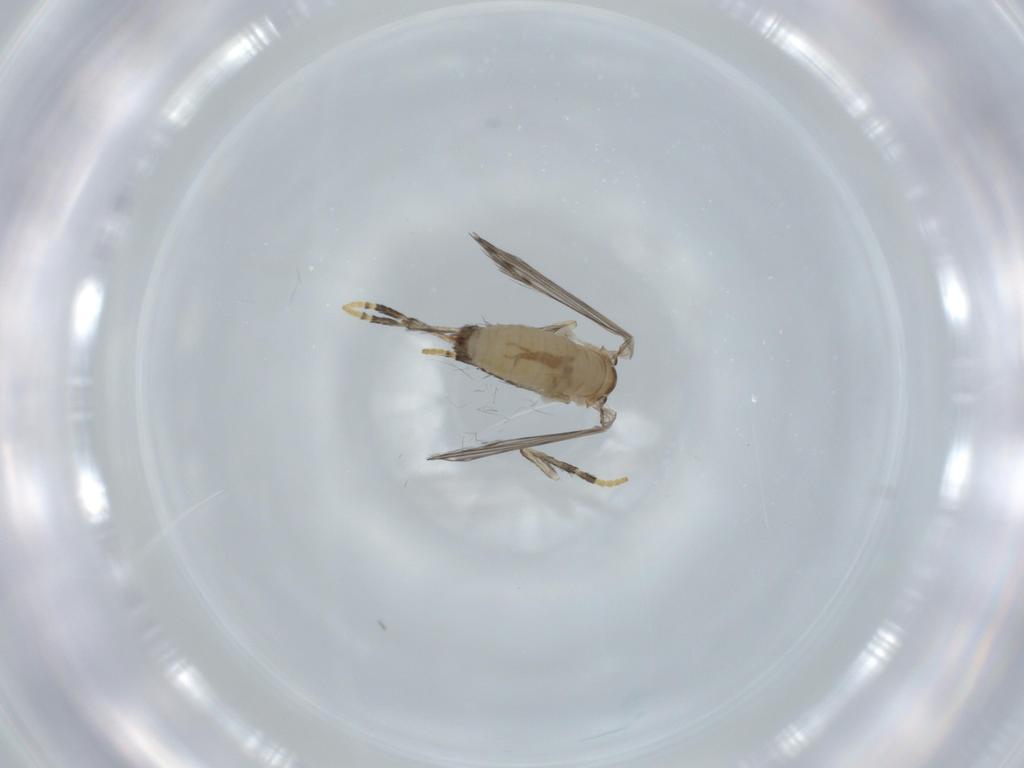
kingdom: Animalia
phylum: Arthropoda
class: Insecta
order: Diptera
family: Psychodidae
